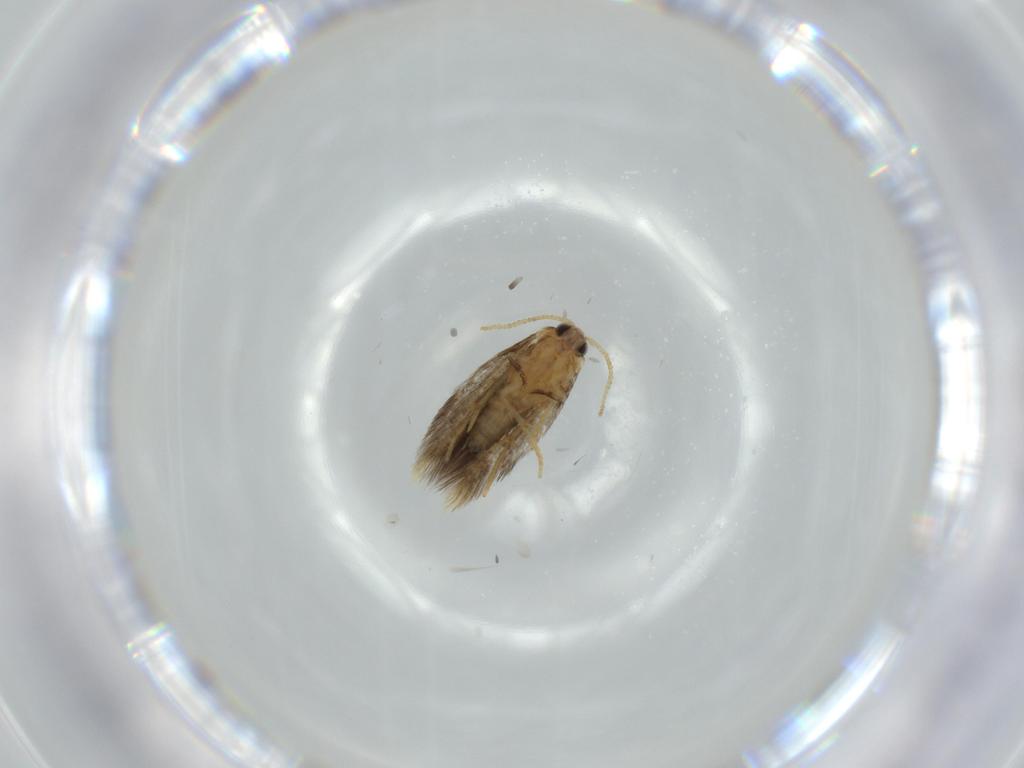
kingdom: Animalia
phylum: Arthropoda
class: Insecta
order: Lepidoptera
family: Copromorphidae
